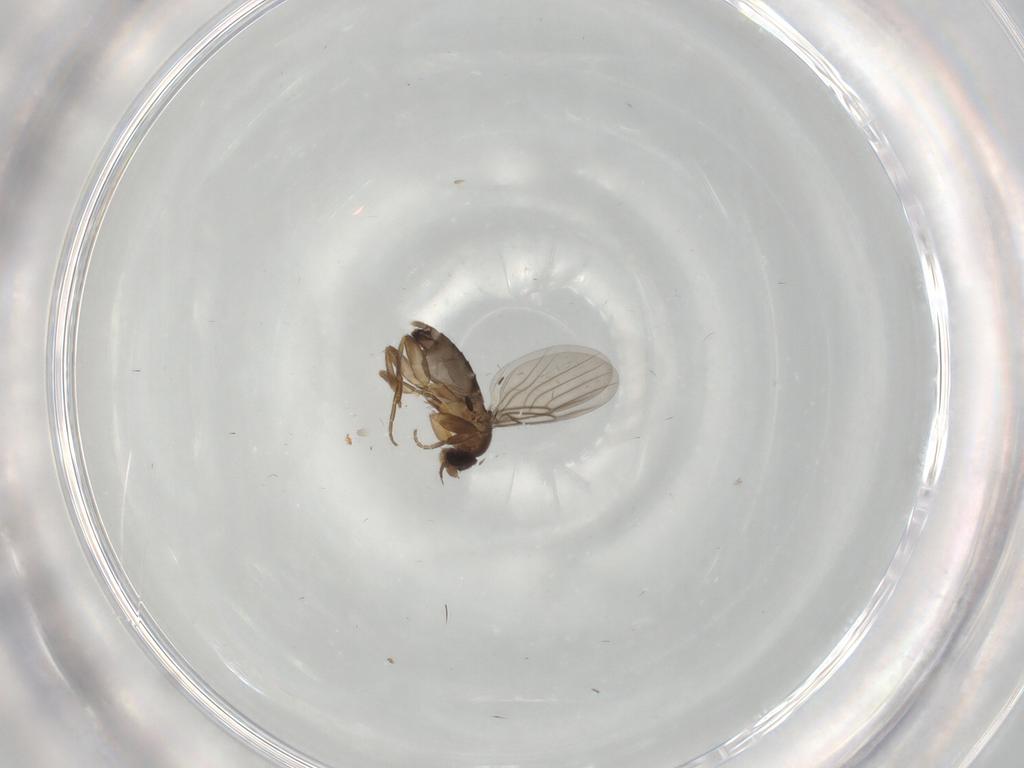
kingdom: Animalia
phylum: Arthropoda
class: Insecta
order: Diptera
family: Phoridae
